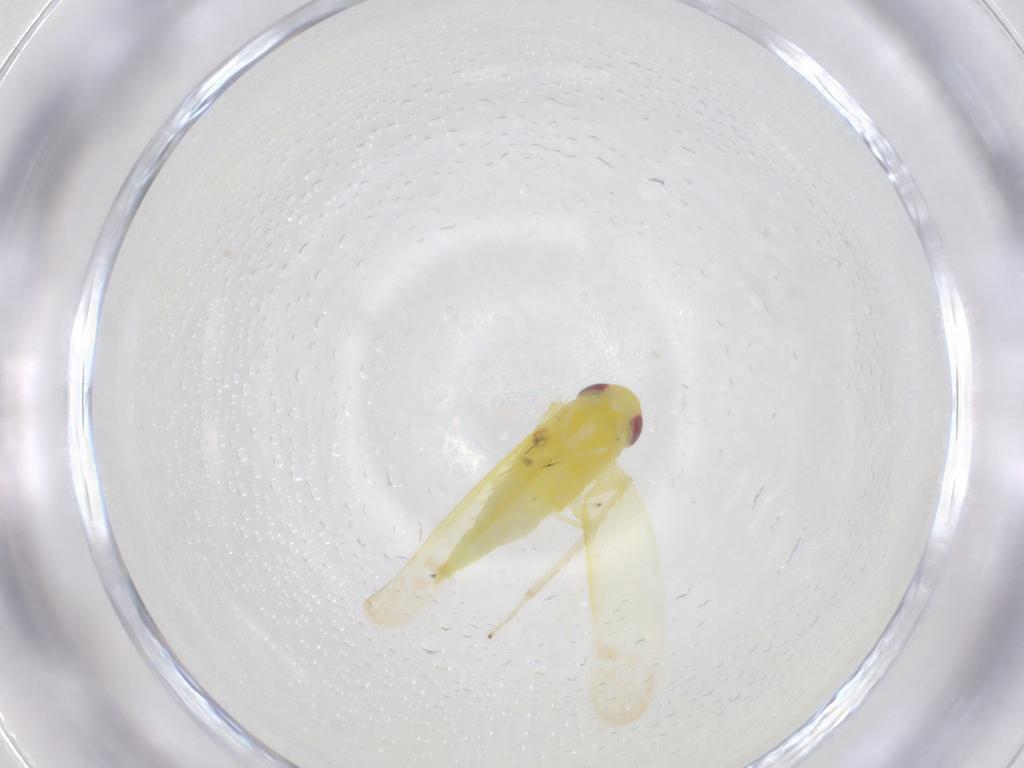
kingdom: Animalia
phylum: Arthropoda
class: Insecta
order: Hemiptera
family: Cicadellidae
